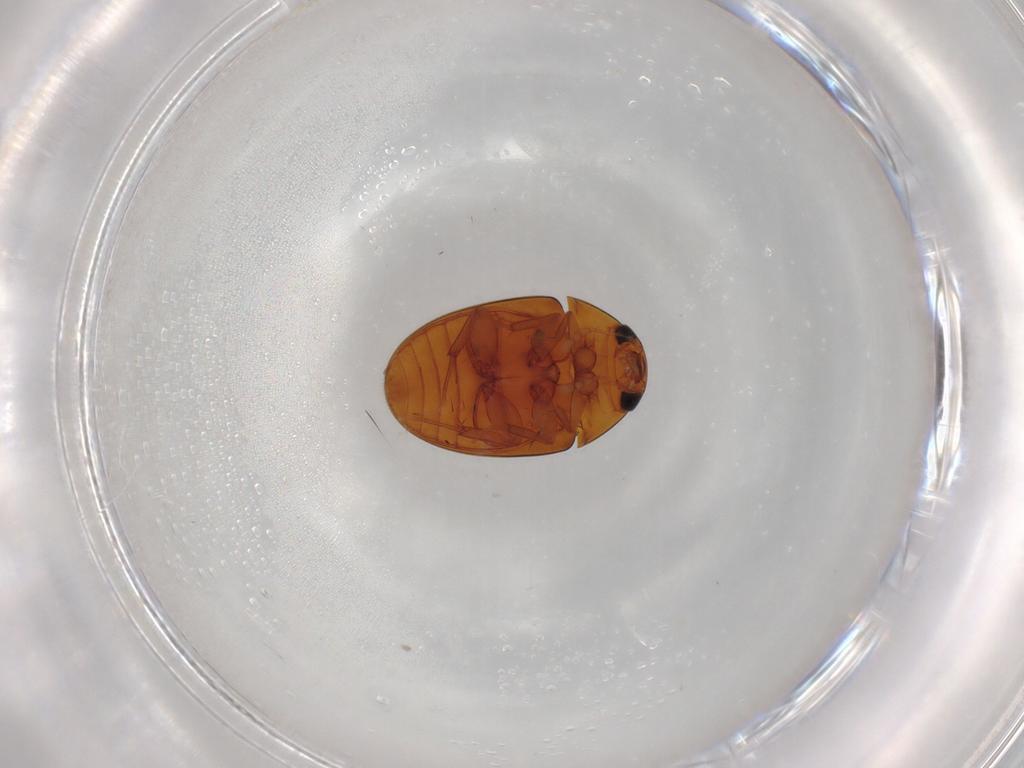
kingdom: Animalia
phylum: Arthropoda
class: Insecta
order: Coleoptera
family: Phalacridae
